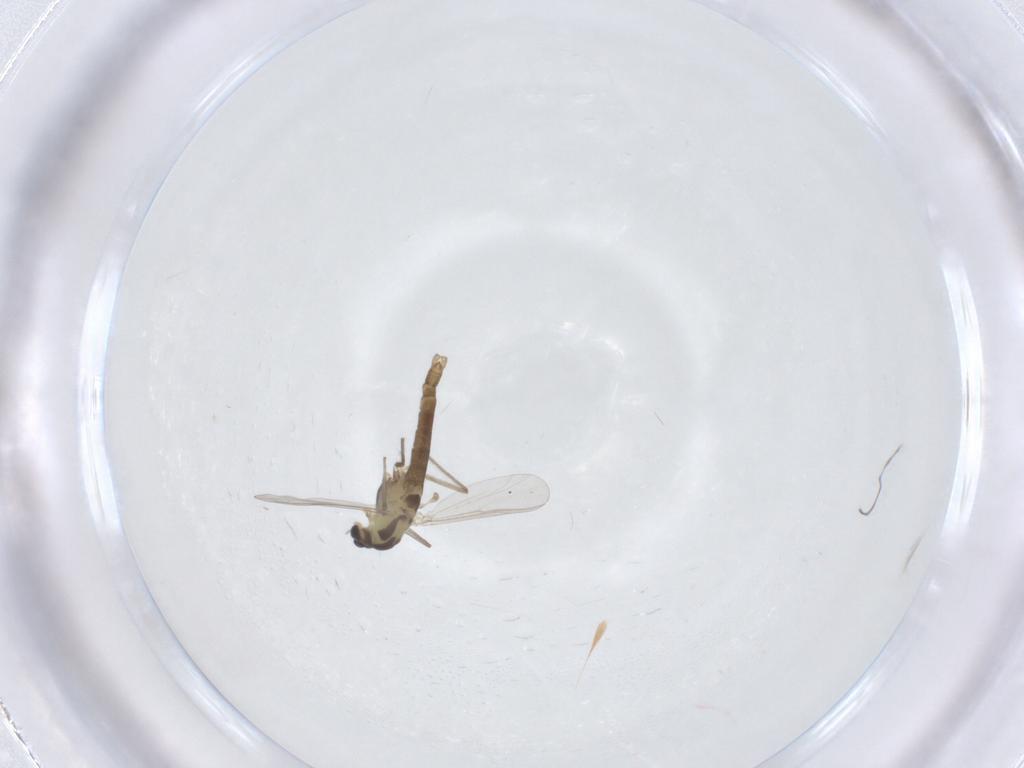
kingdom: Animalia
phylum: Arthropoda
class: Insecta
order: Diptera
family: Chironomidae
